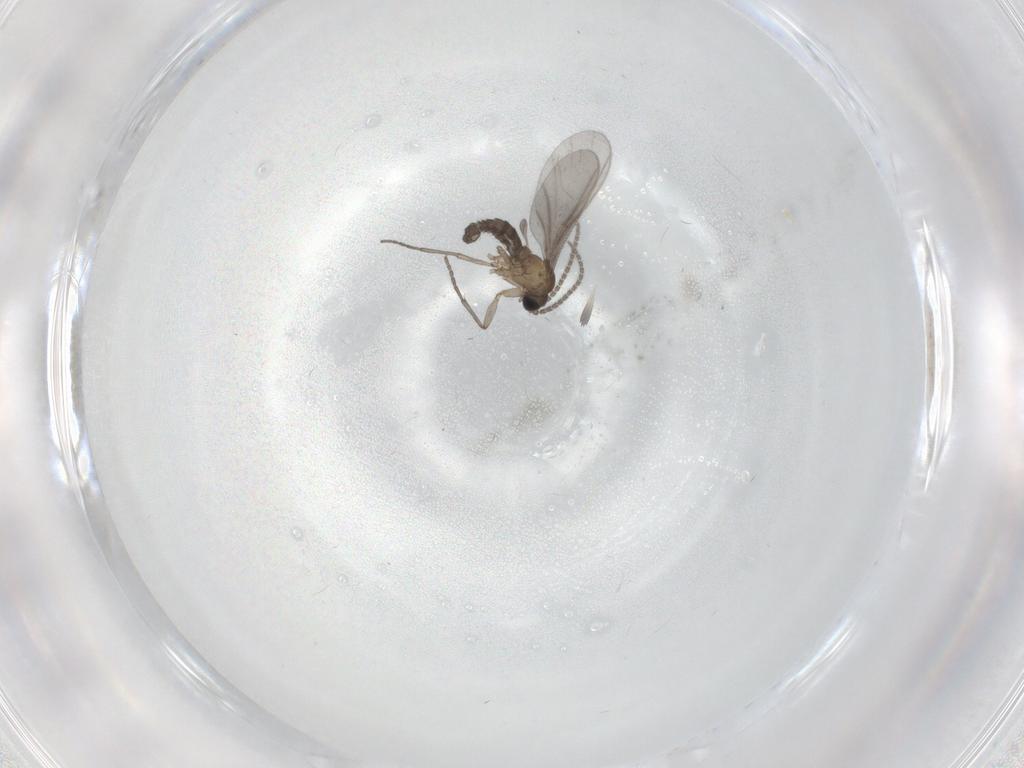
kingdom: Animalia
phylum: Arthropoda
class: Insecta
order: Diptera
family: Sciaridae
